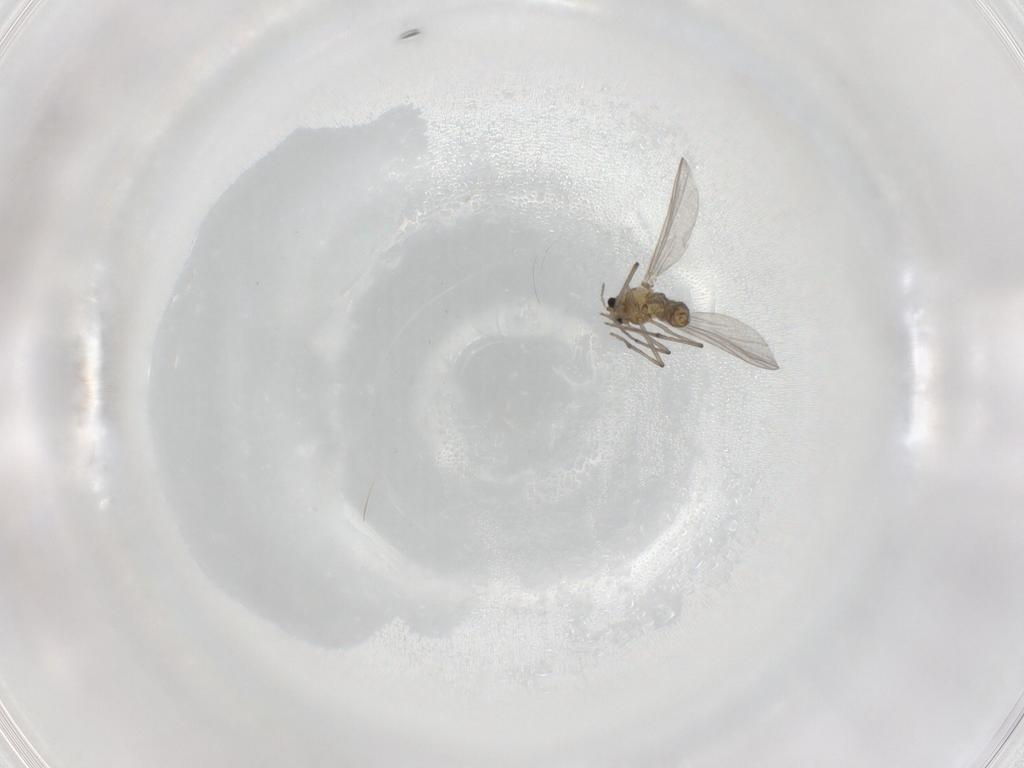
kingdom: Animalia
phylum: Arthropoda
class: Insecta
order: Diptera
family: Chironomidae
